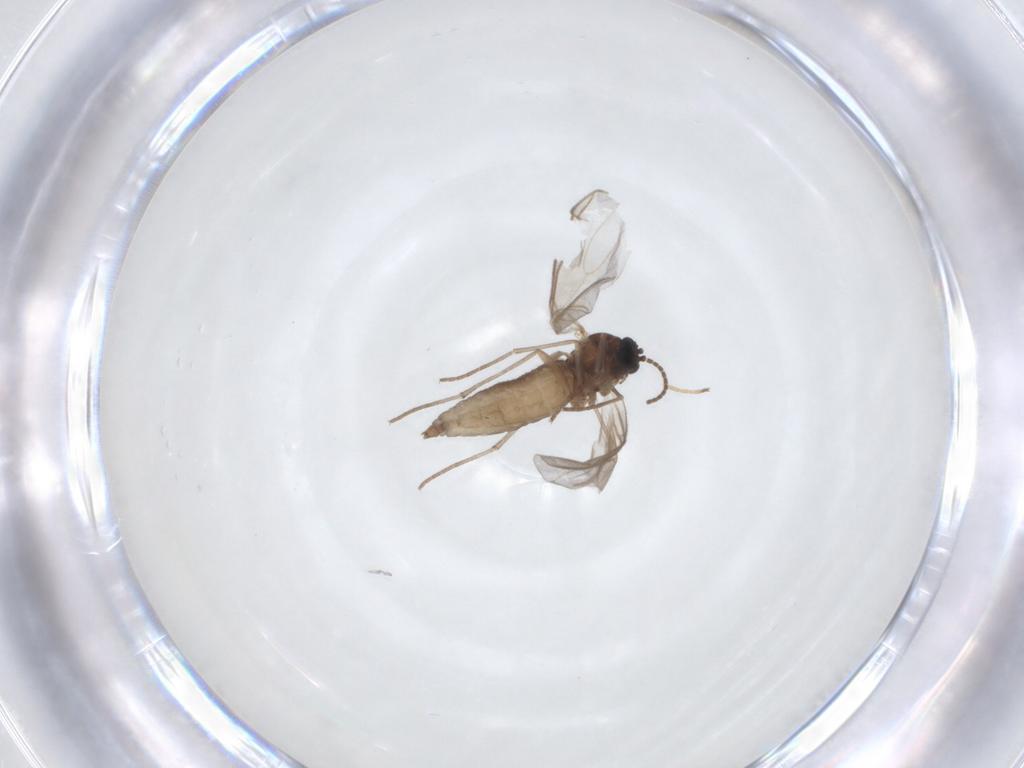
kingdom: Animalia
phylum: Arthropoda
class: Insecta
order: Diptera
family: Sciaridae
